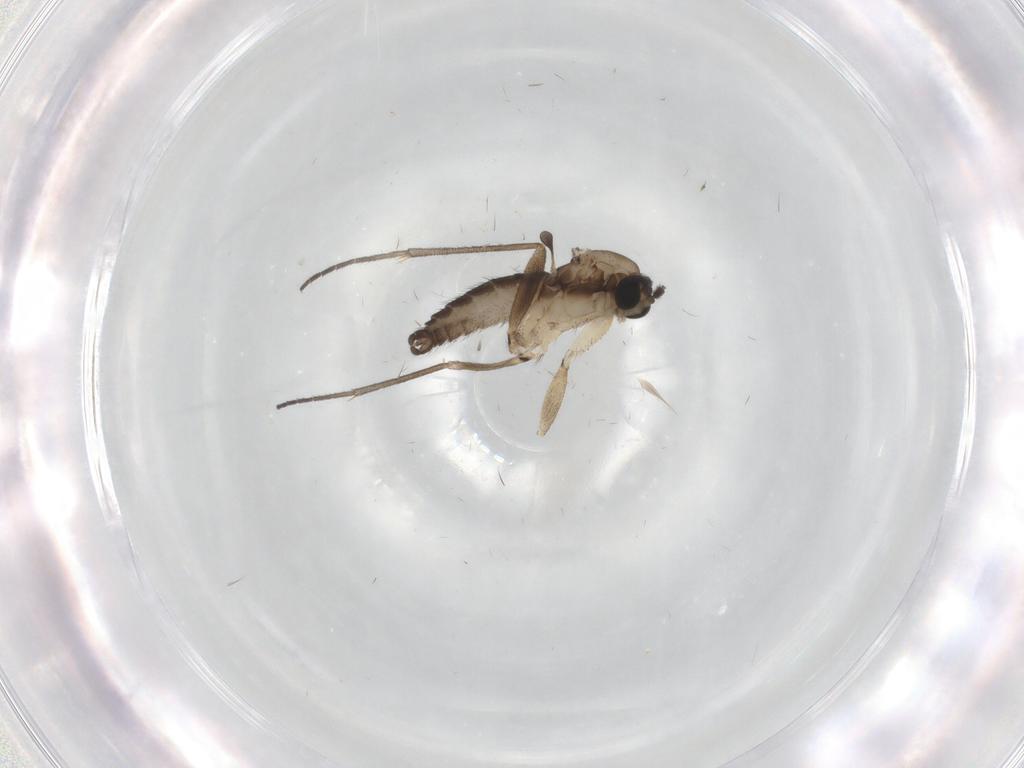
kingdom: Animalia
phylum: Arthropoda
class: Insecta
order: Diptera
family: Sciaridae
